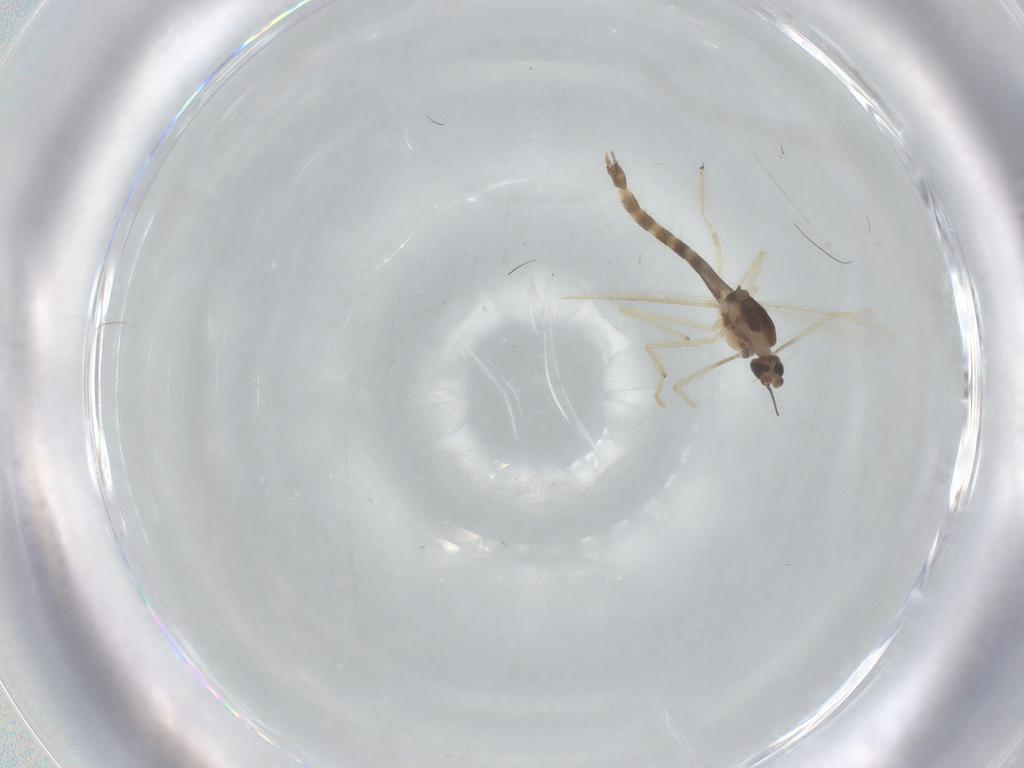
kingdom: Animalia
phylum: Arthropoda
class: Insecta
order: Diptera
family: Chironomidae
